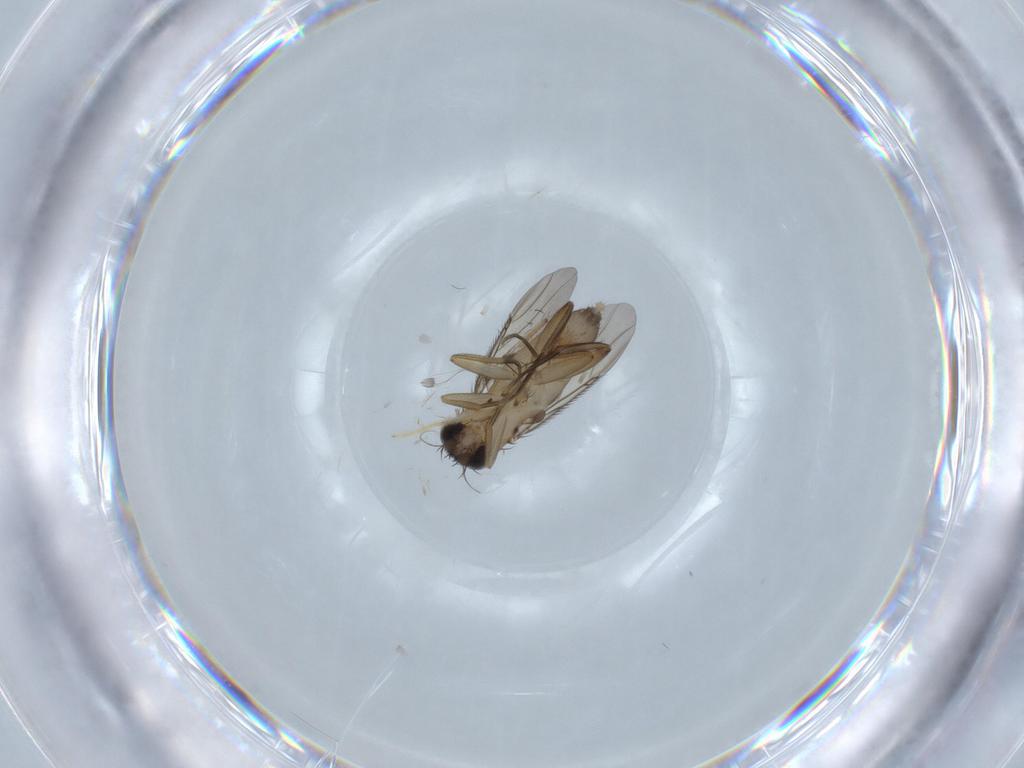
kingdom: Animalia
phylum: Arthropoda
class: Insecta
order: Diptera
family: Phoridae
